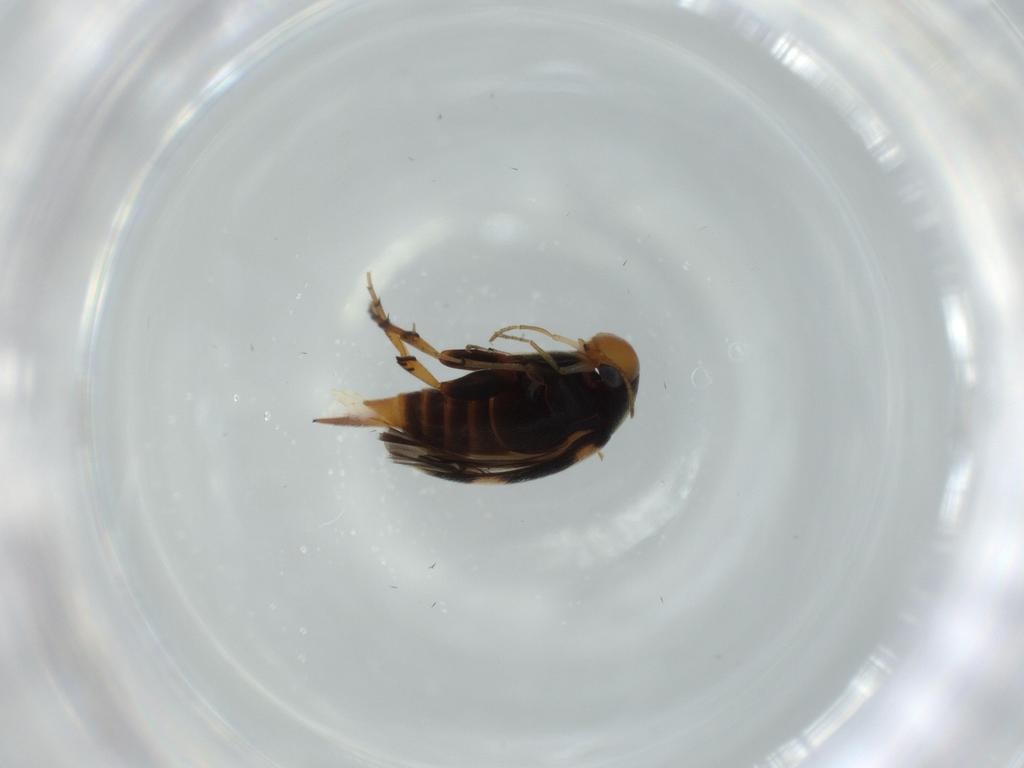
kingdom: Animalia
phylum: Arthropoda
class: Insecta
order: Coleoptera
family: Mordellidae
